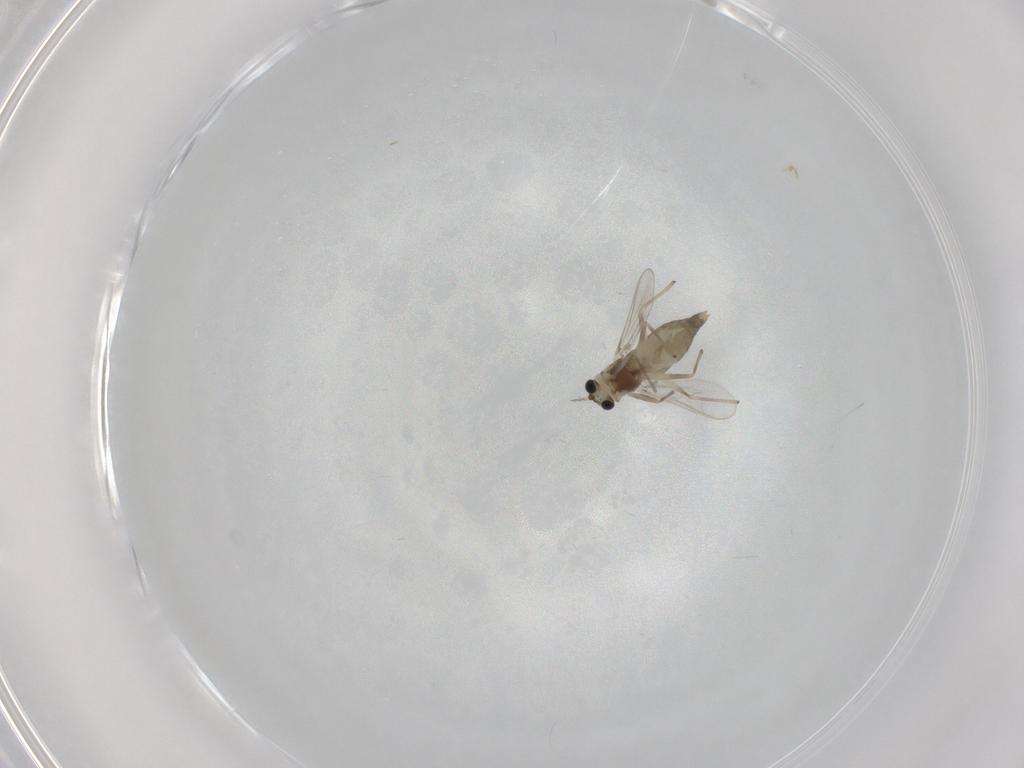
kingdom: Animalia
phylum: Arthropoda
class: Insecta
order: Diptera
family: Chironomidae
